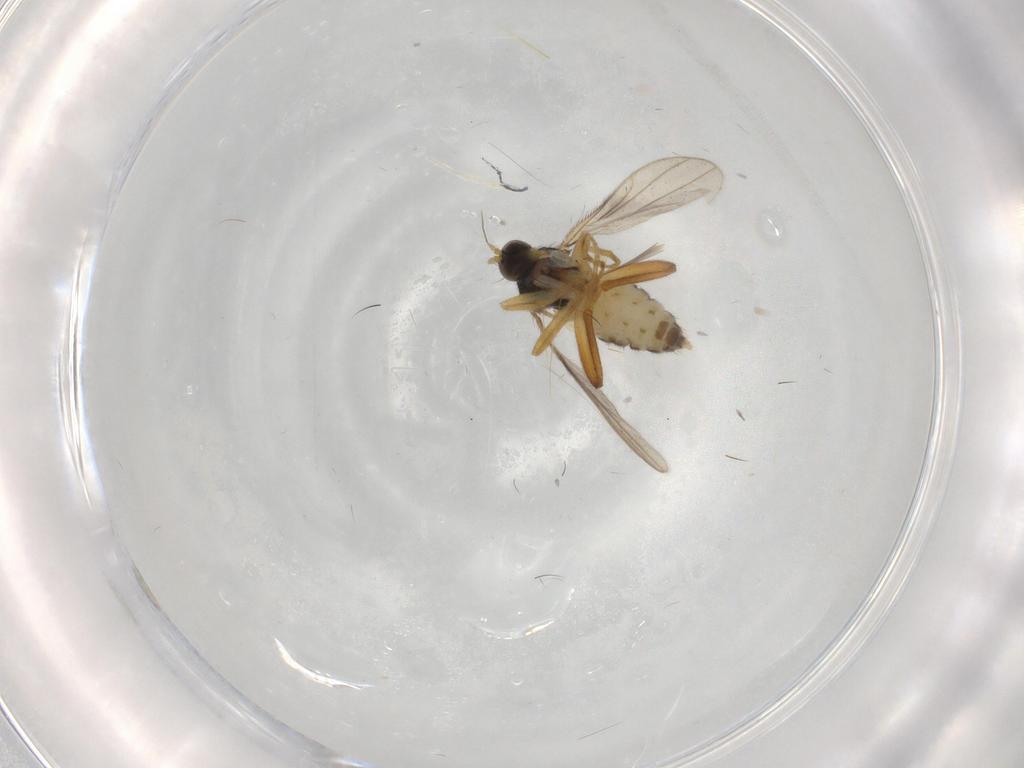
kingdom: Animalia
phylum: Arthropoda
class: Insecta
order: Diptera
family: Hybotidae
